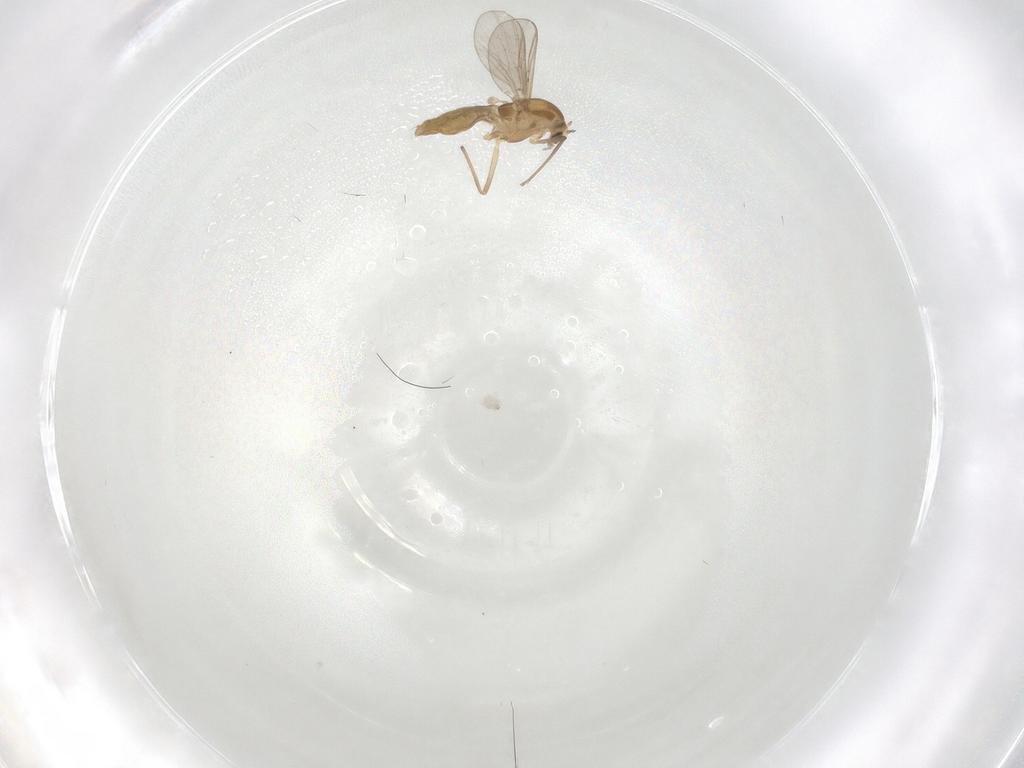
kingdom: Animalia
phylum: Arthropoda
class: Insecta
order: Diptera
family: Chironomidae
